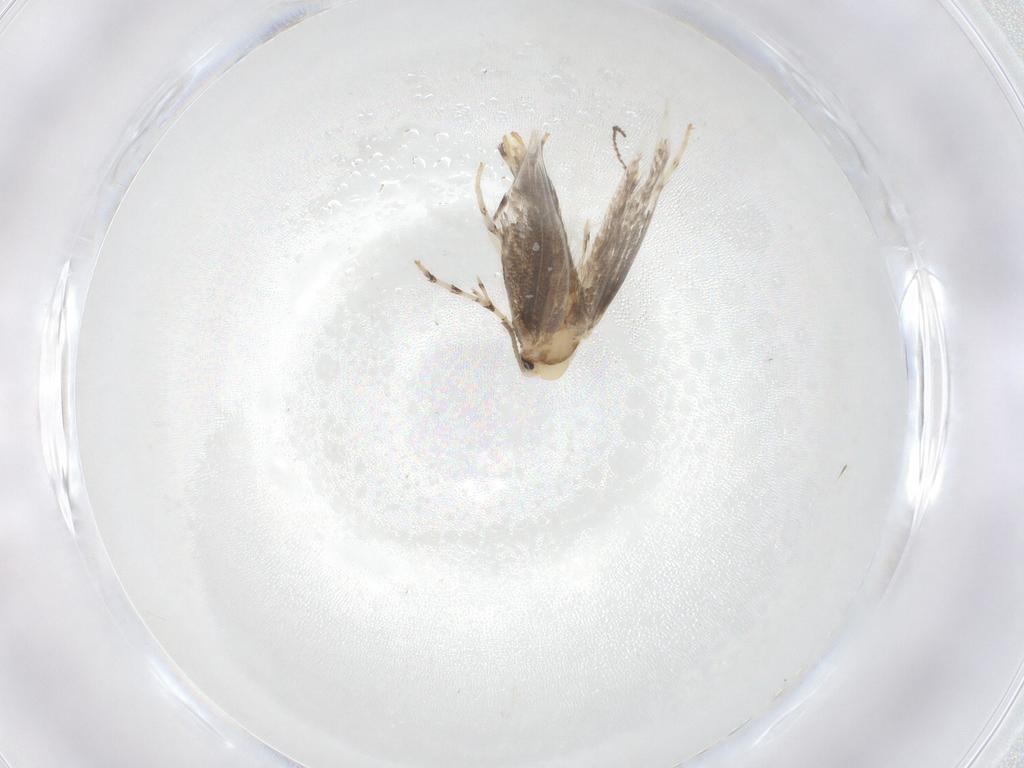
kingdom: Animalia
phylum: Arthropoda
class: Insecta
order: Lepidoptera
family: Gracillariidae
